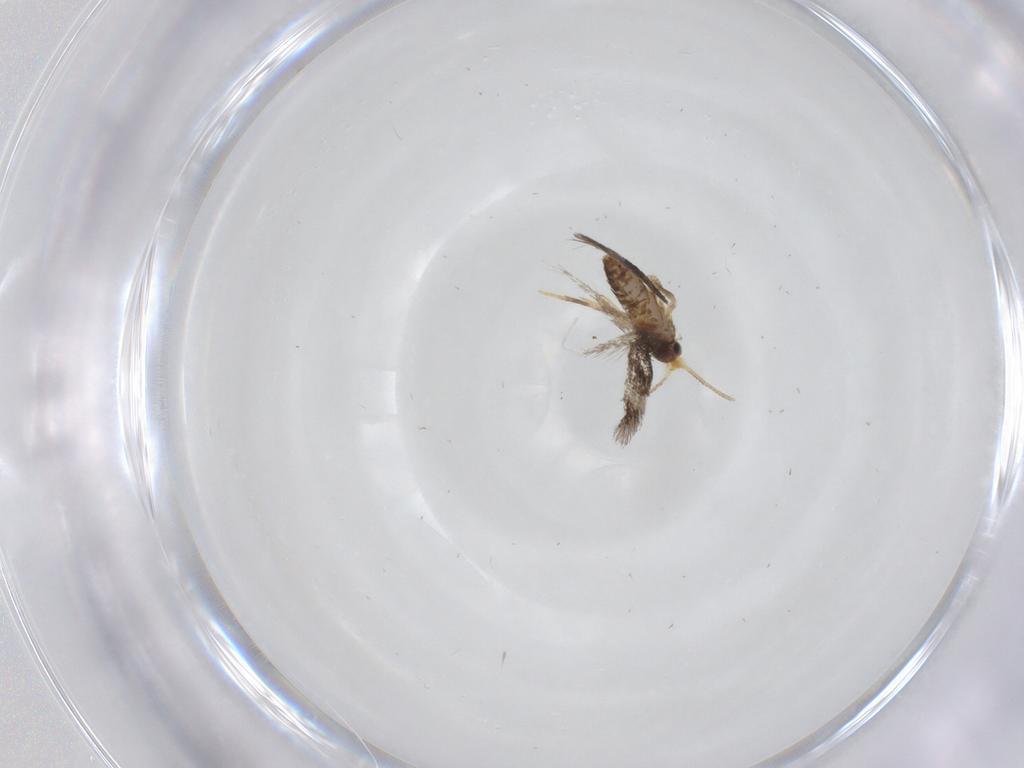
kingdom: Animalia
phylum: Arthropoda
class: Insecta
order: Lepidoptera
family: Nepticulidae
